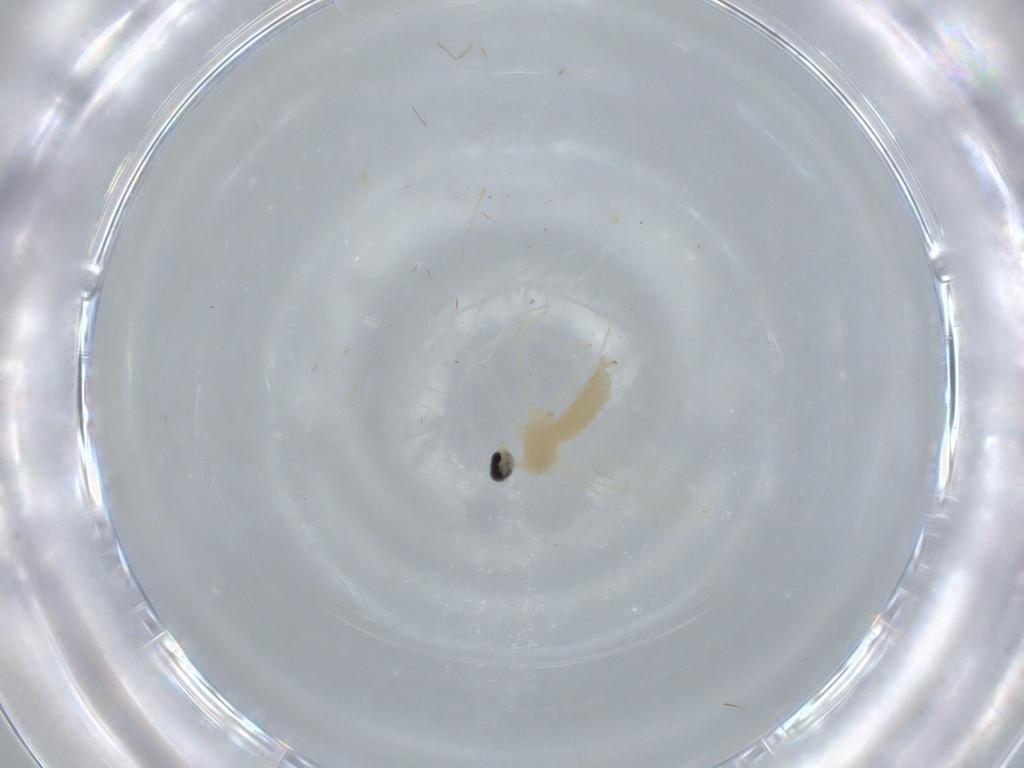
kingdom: Animalia
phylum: Arthropoda
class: Insecta
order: Diptera
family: Cecidomyiidae
